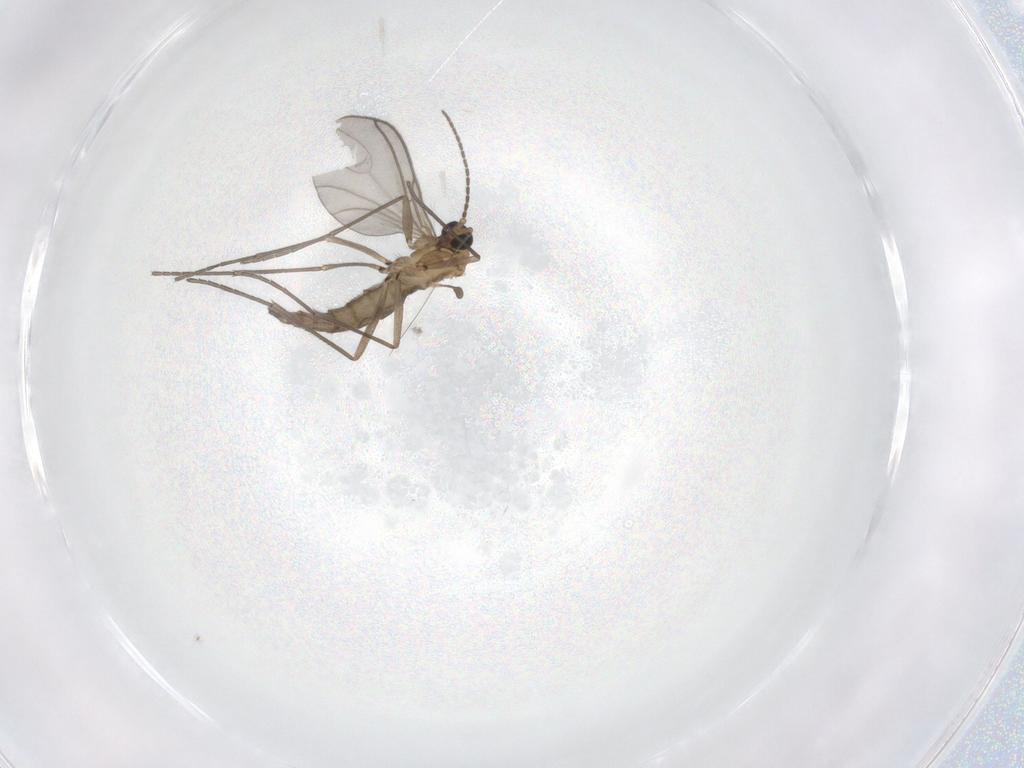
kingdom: Animalia
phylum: Arthropoda
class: Insecta
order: Diptera
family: Sciaridae
